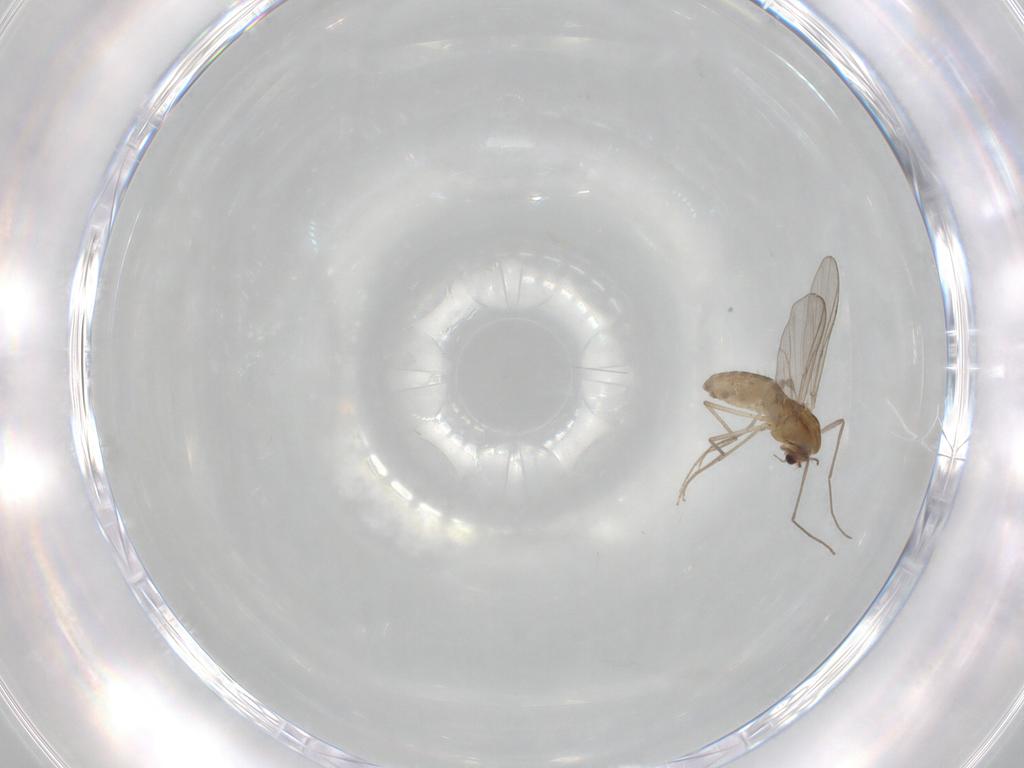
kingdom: Animalia
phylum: Arthropoda
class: Insecta
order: Diptera
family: Chironomidae
